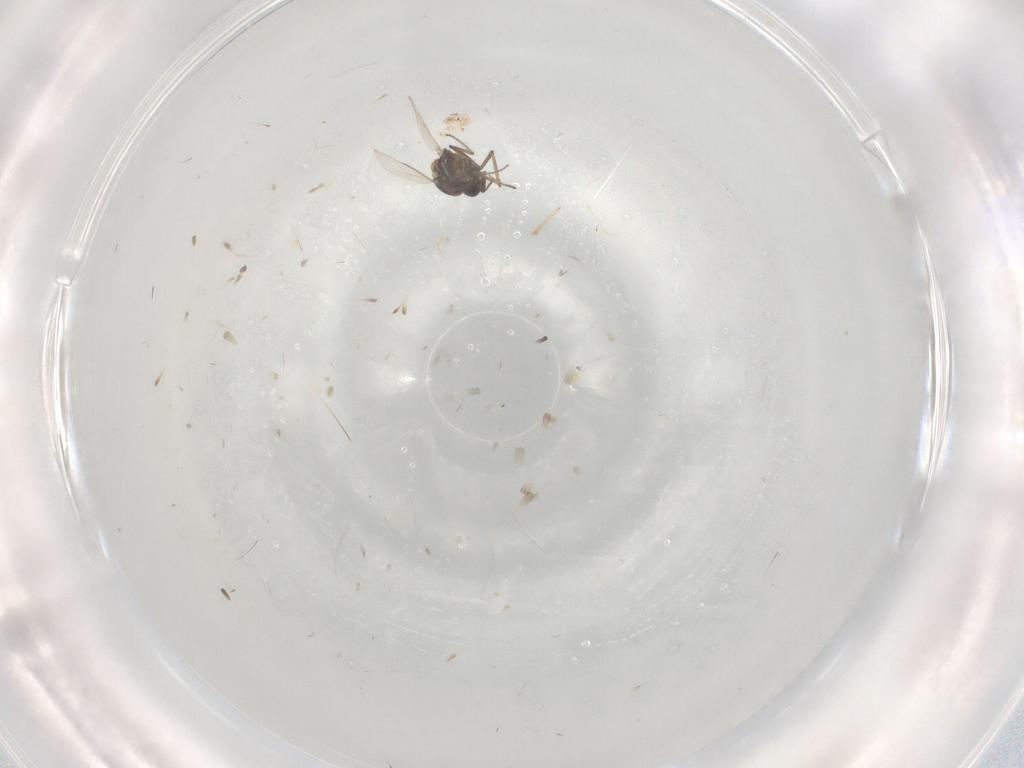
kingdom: Animalia
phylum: Arthropoda
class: Insecta
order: Diptera
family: Ceratopogonidae
